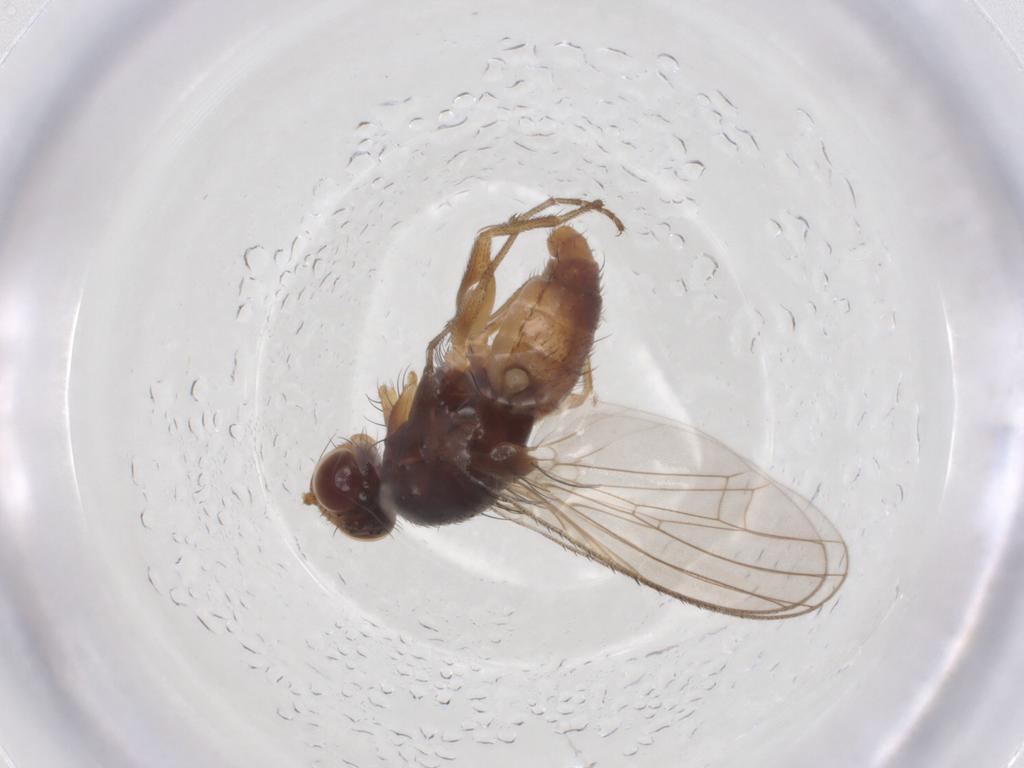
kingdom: Animalia
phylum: Arthropoda
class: Insecta
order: Diptera
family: Heleomyzidae
